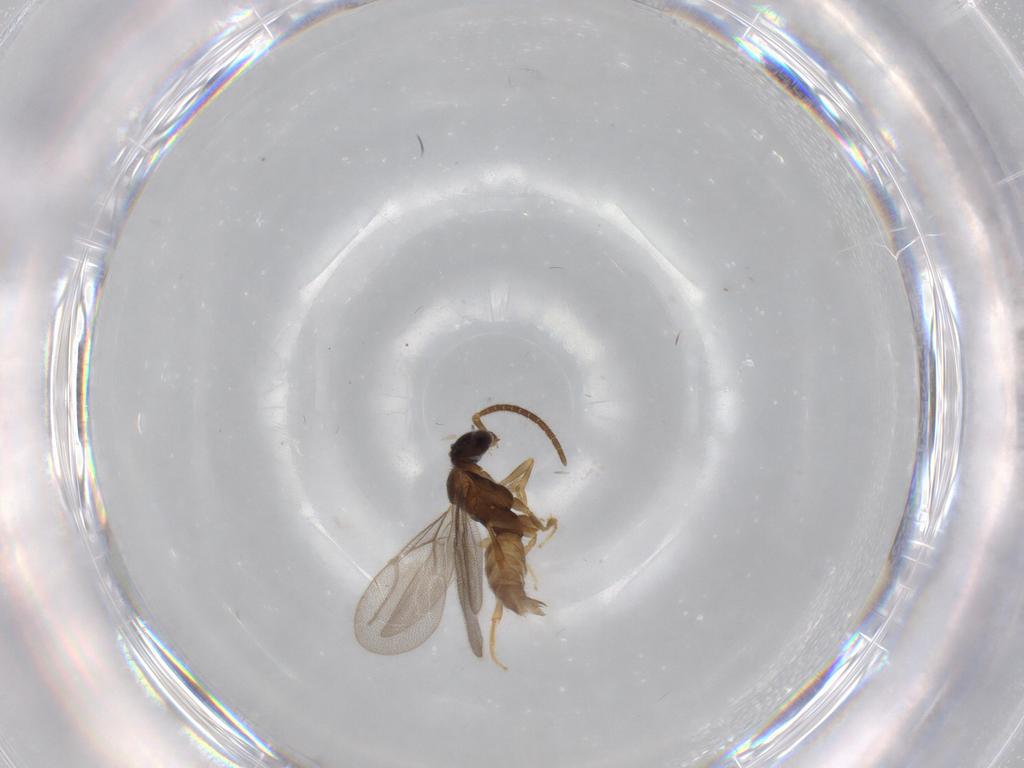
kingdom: Animalia
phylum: Arthropoda
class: Insecta
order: Hymenoptera
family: Bethylidae
